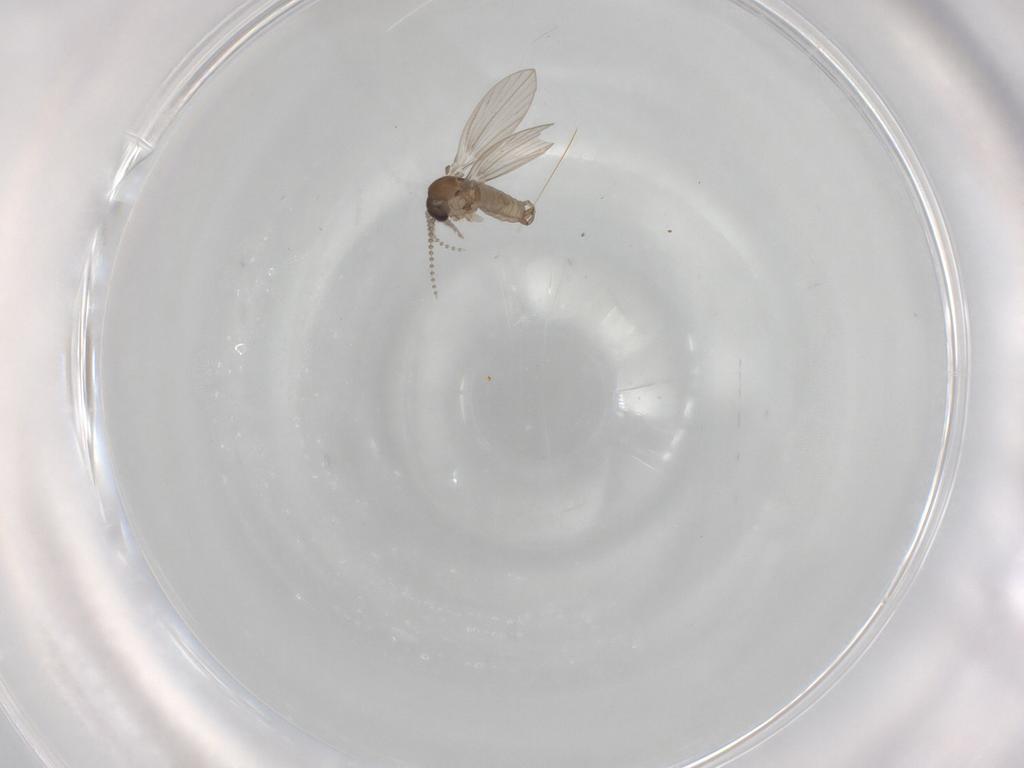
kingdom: Animalia
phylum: Arthropoda
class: Insecta
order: Diptera
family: Psychodidae
